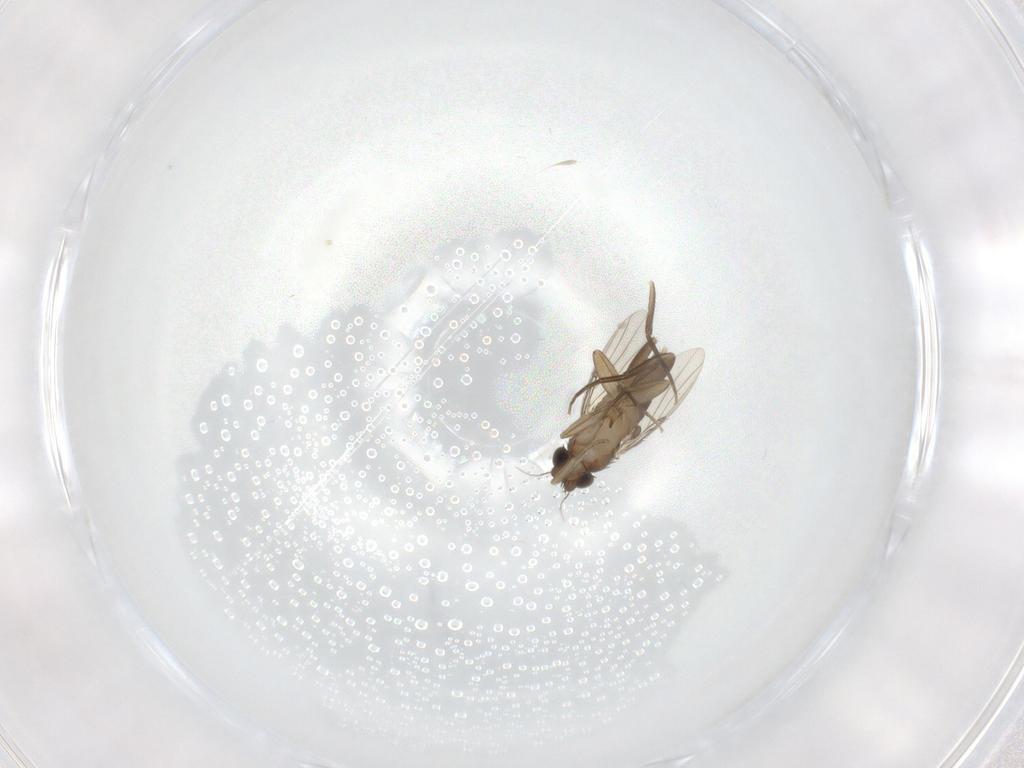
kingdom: Animalia
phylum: Arthropoda
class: Insecta
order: Diptera
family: Phoridae
